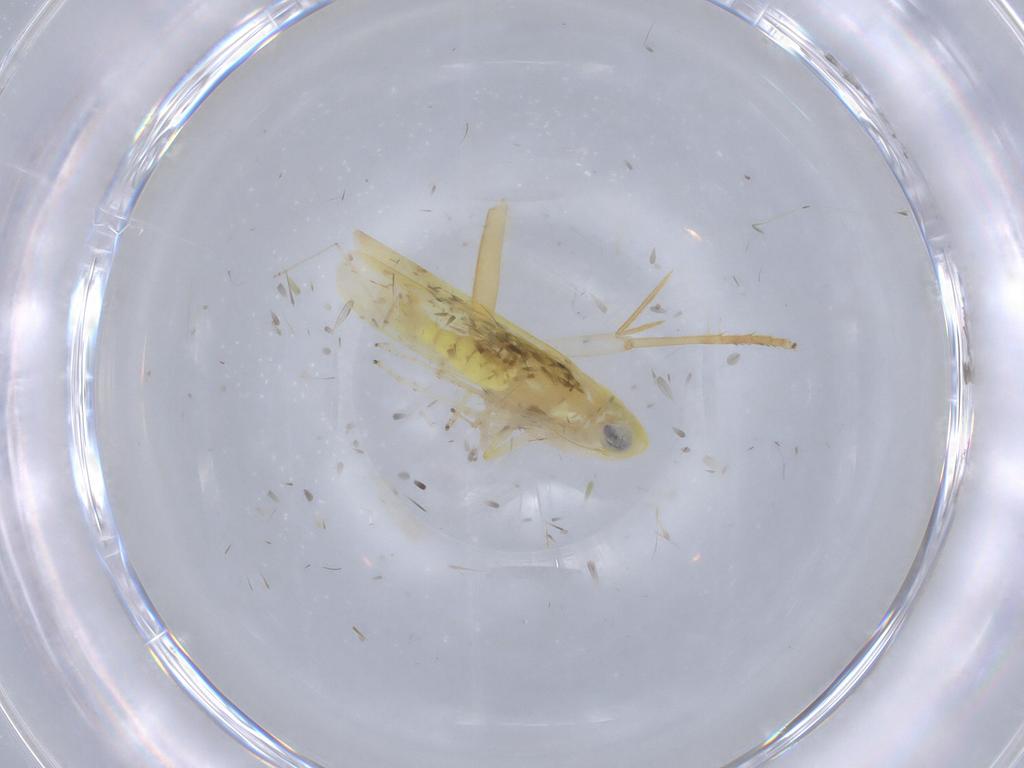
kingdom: Animalia
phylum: Arthropoda
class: Insecta
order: Hemiptera
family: Cicadellidae
